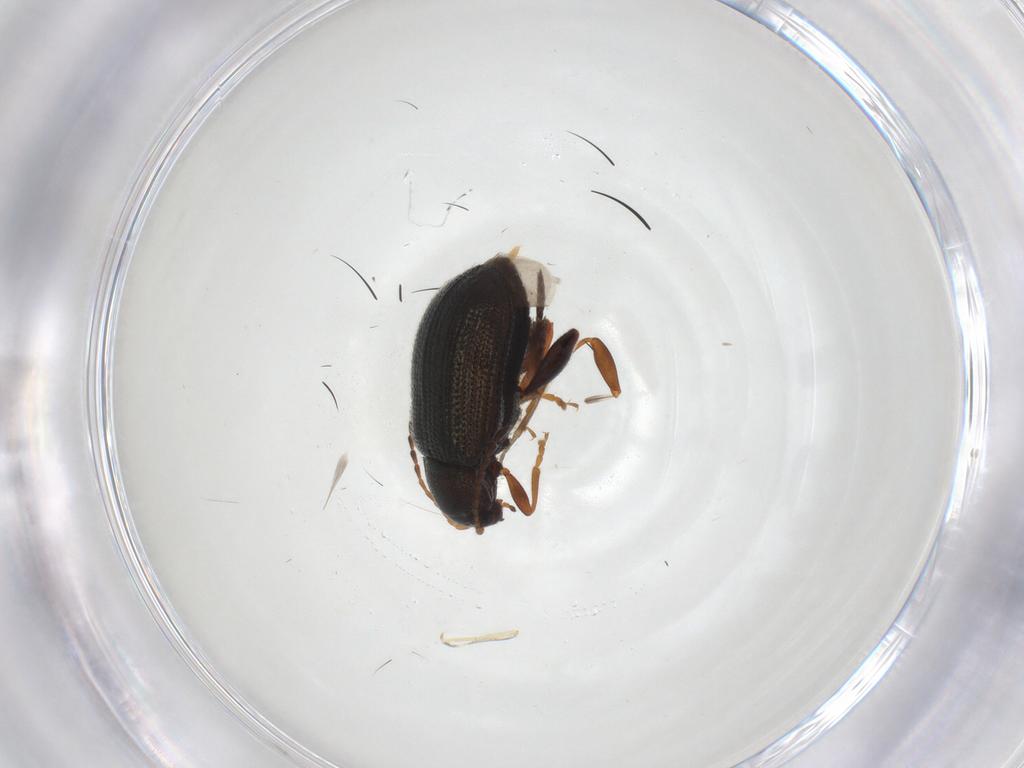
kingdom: Animalia
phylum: Arthropoda
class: Insecta
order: Coleoptera
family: Chrysomelidae
